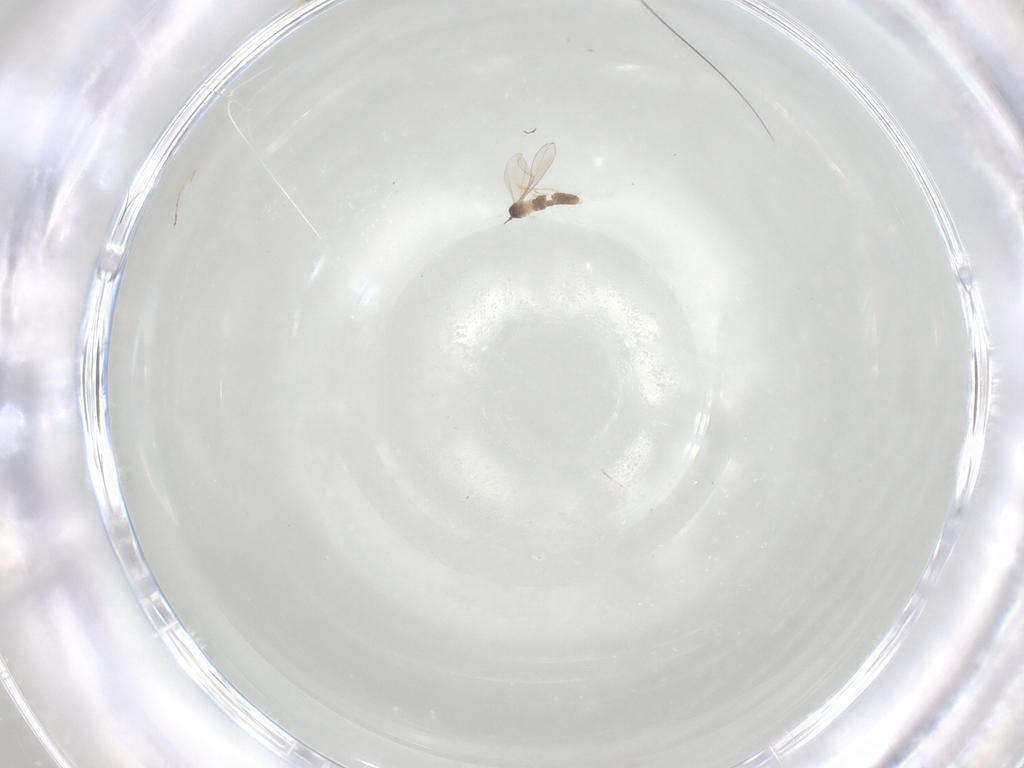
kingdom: Animalia
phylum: Arthropoda
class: Insecta
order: Diptera
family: Cecidomyiidae
